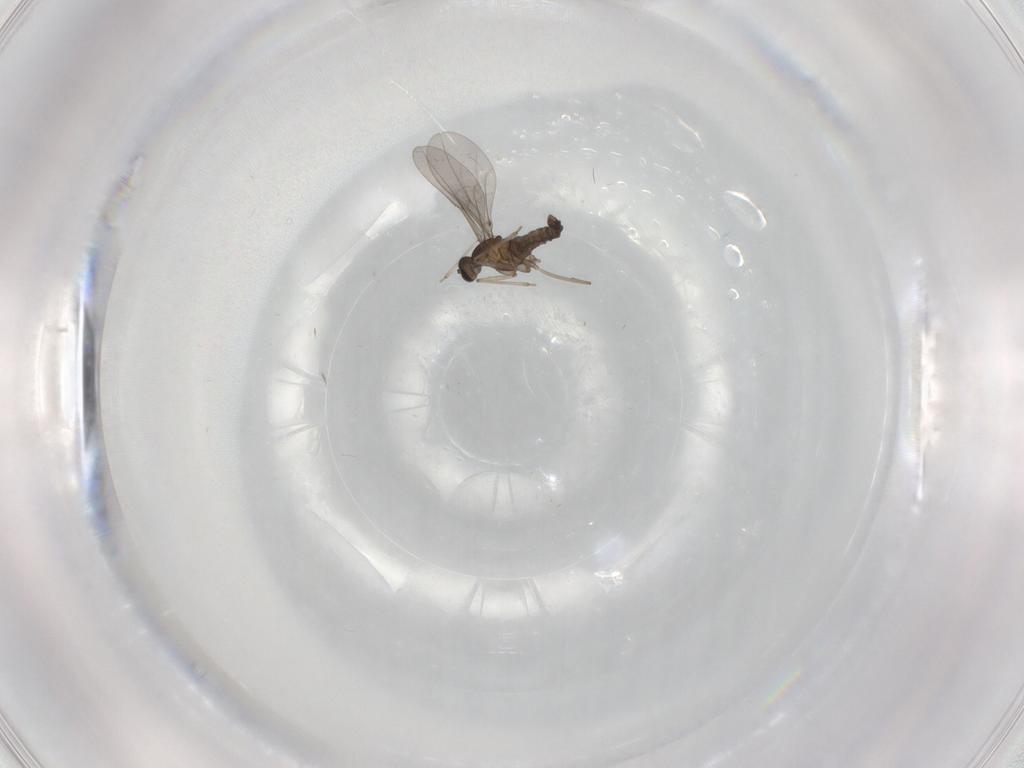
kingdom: Animalia
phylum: Arthropoda
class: Insecta
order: Diptera
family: Cecidomyiidae
